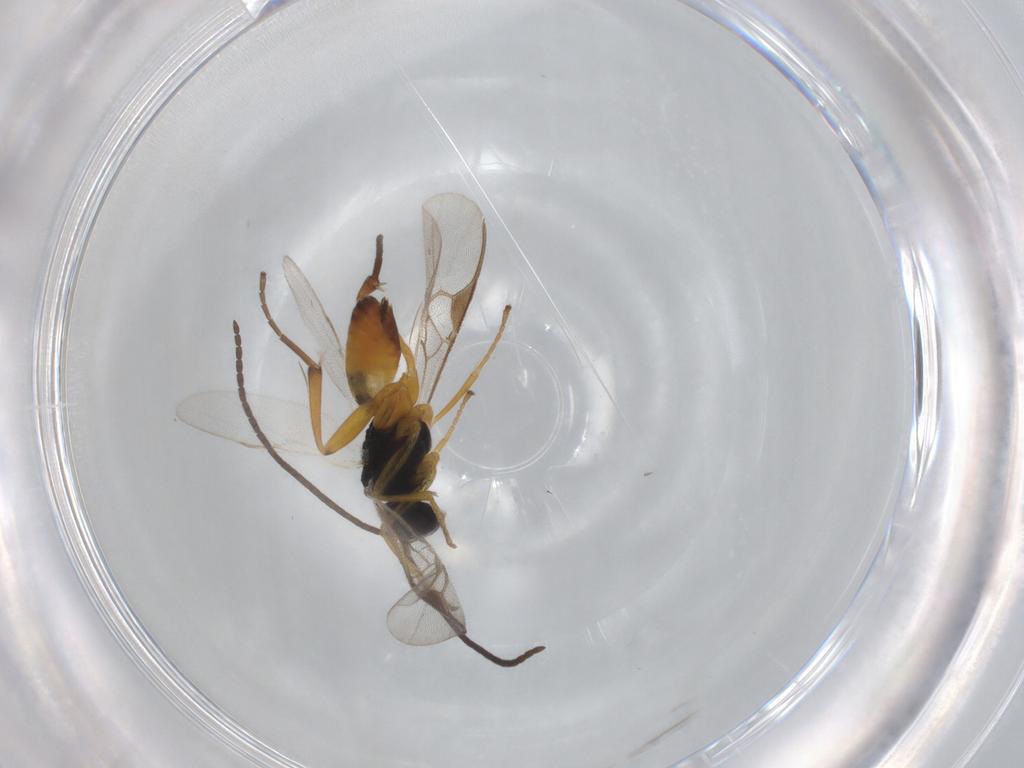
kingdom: Animalia
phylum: Arthropoda
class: Insecta
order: Hymenoptera
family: Braconidae
